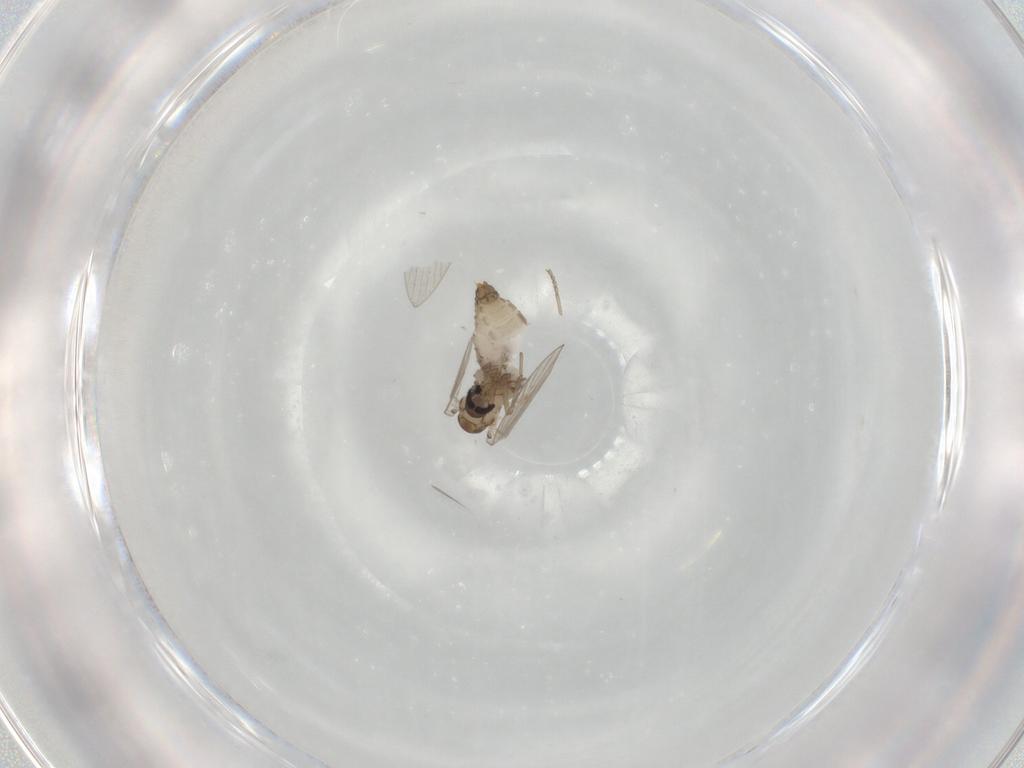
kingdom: Animalia
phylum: Arthropoda
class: Insecta
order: Diptera
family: Psychodidae
